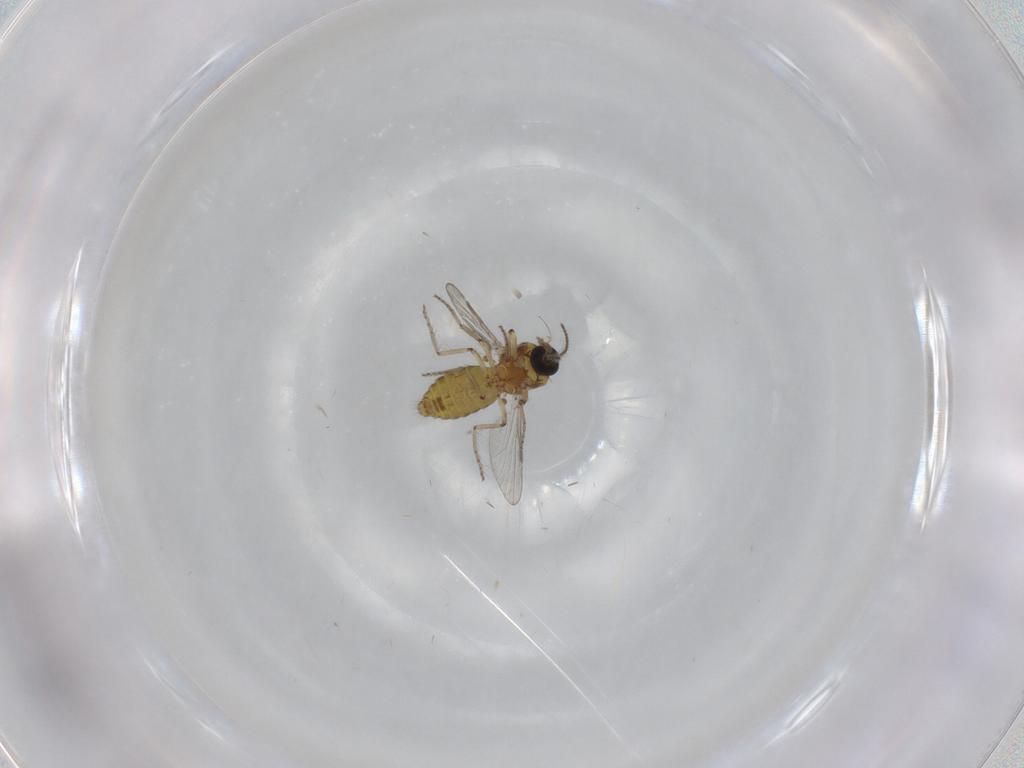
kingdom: Animalia
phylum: Arthropoda
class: Insecta
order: Diptera
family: Ceratopogonidae
